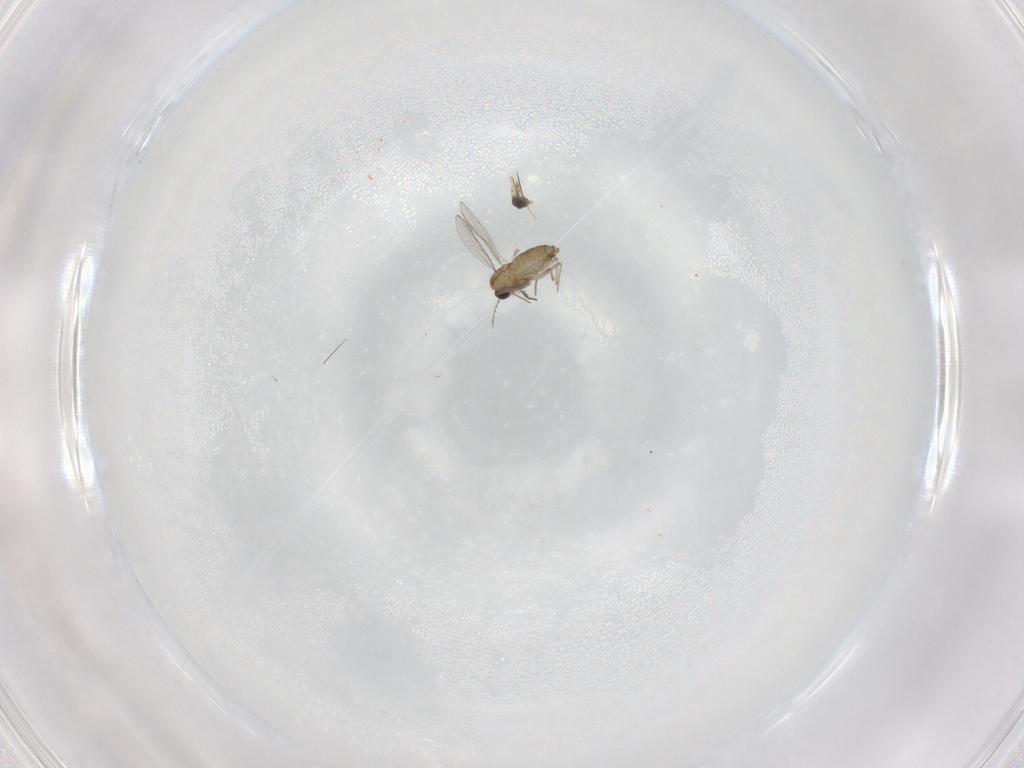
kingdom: Animalia
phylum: Arthropoda
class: Insecta
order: Diptera
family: Chironomidae
